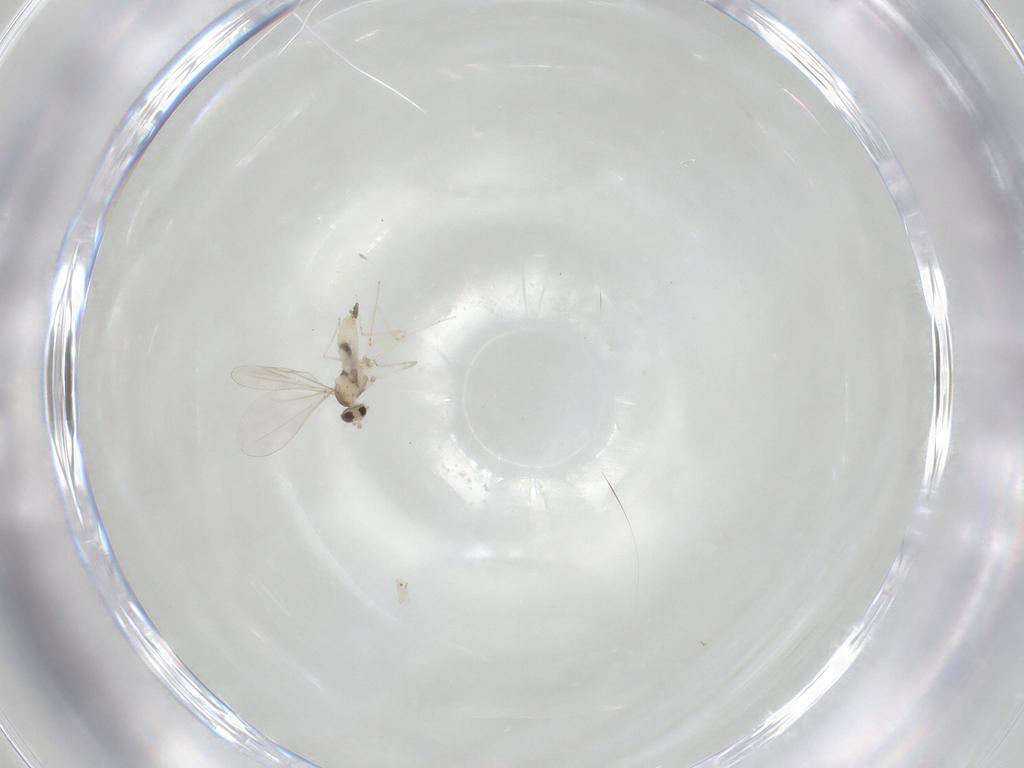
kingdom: Animalia
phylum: Arthropoda
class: Insecta
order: Diptera
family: Cecidomyiidae
